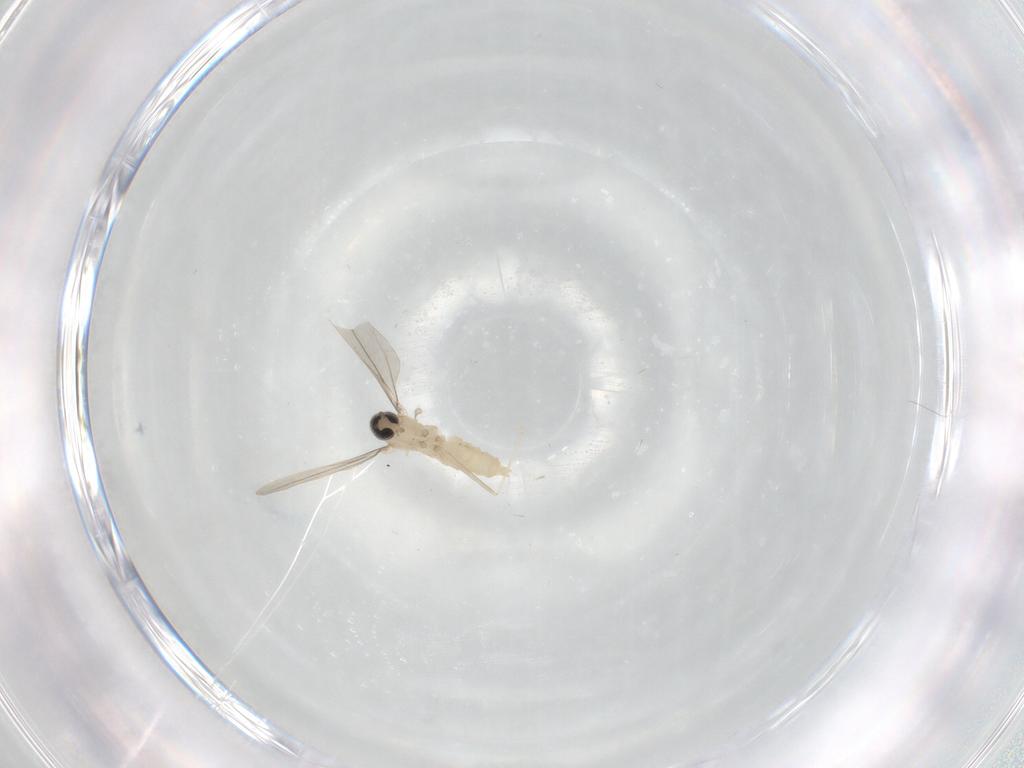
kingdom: Animalia
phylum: Arthropoda
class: Insecta
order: Diptera
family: Cecidomyiidae
